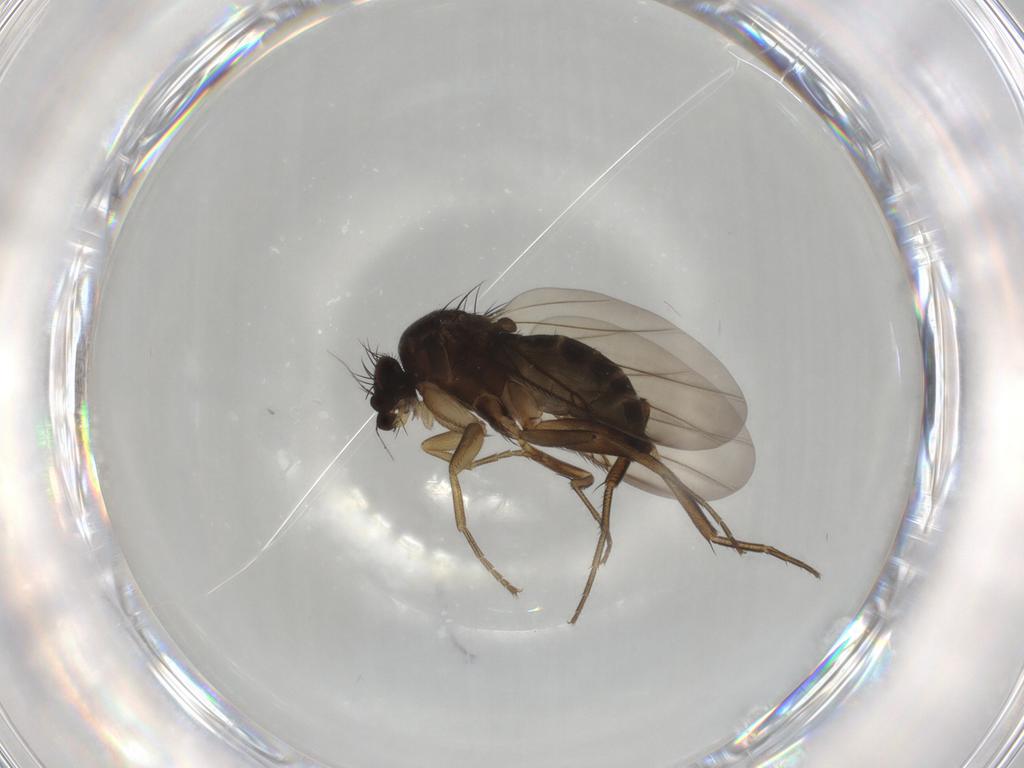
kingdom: Animalia
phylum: Arthropoda
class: Insecta
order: Diptera
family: Phoridae
